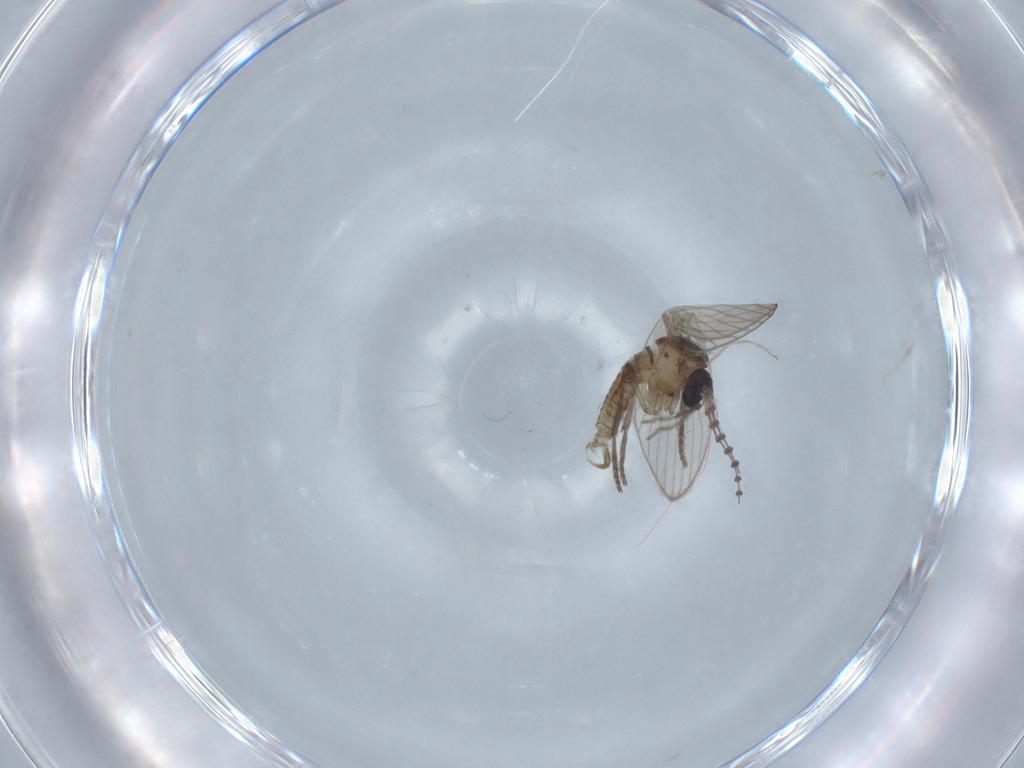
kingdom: Animalia
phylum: Arthropoda
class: Insecta
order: Diptera
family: Psychodidae
